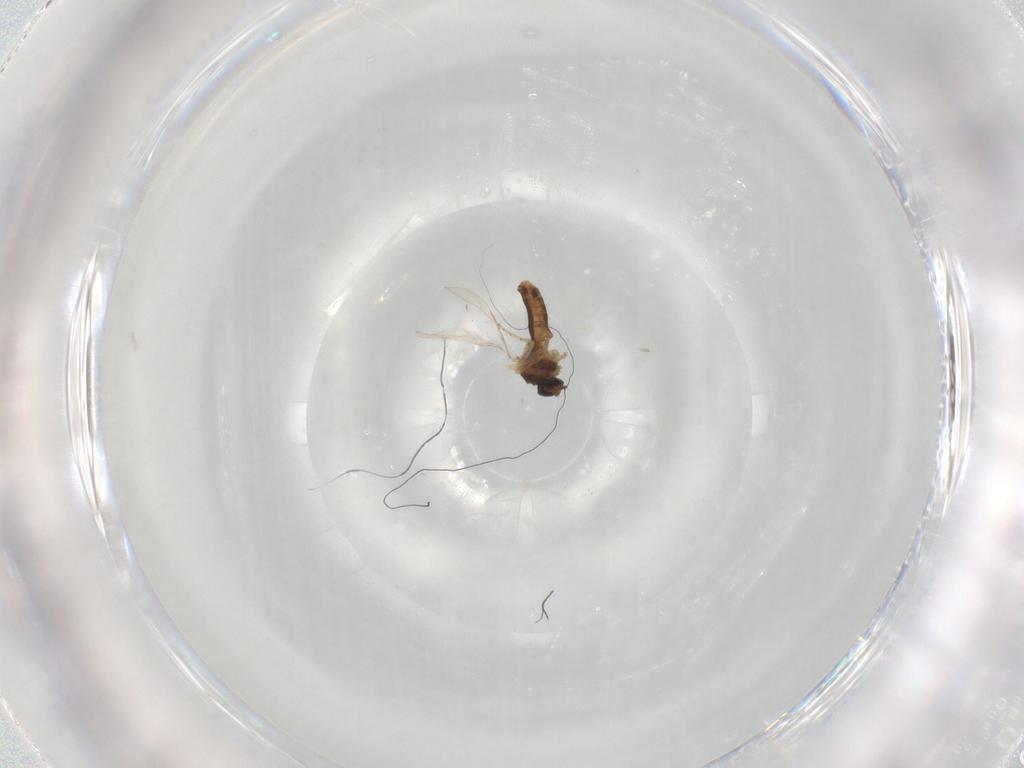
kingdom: Animalia
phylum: Arthropoda
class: Insecta
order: Diptera
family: Ceratopogonidae
